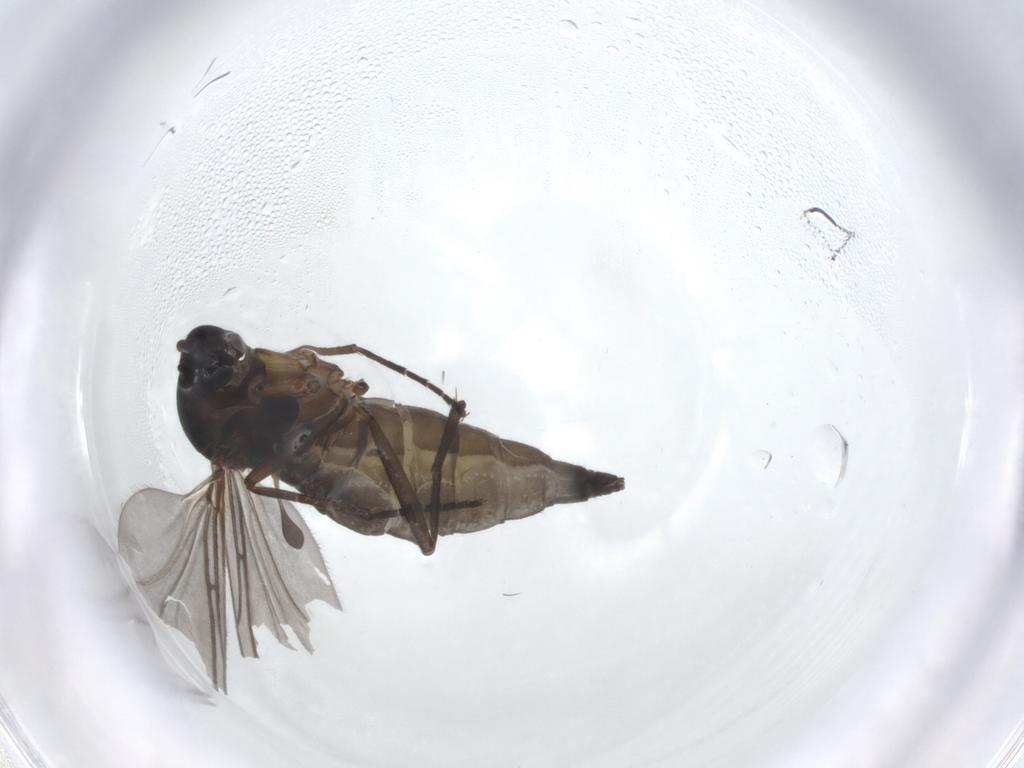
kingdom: Animalia
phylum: Arthropoda
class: Insecta
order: Diptera
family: Sciaridae
